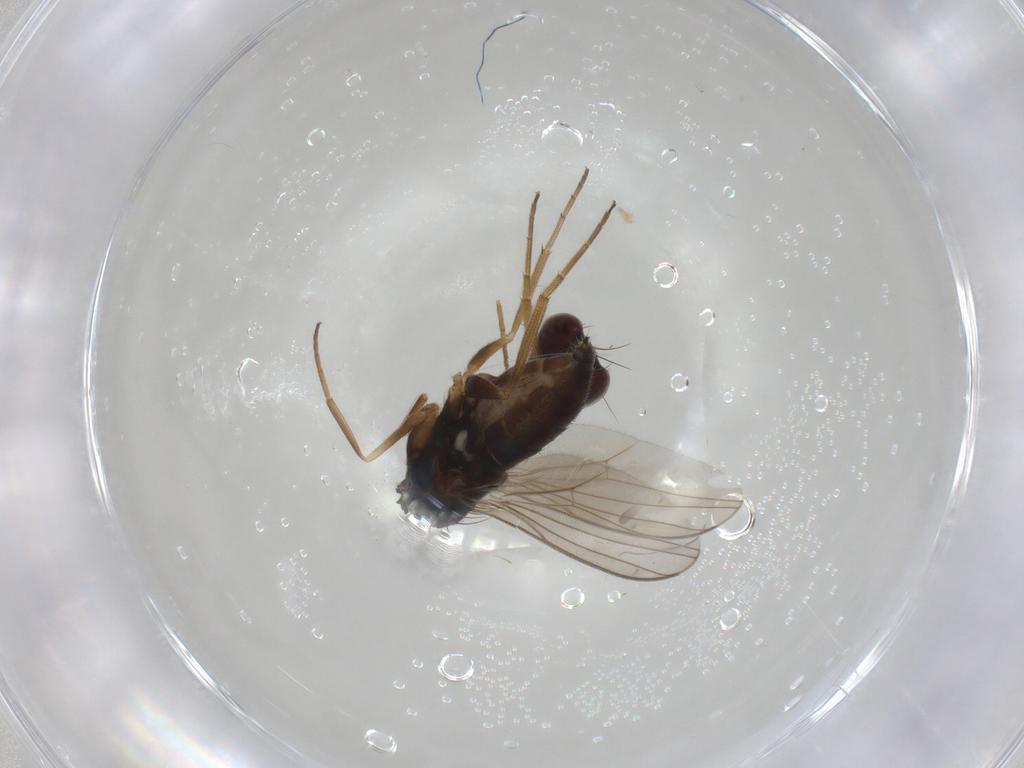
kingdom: Animalia
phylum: Arthropoda
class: Insecta
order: Diptera
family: Dolichopodidae
